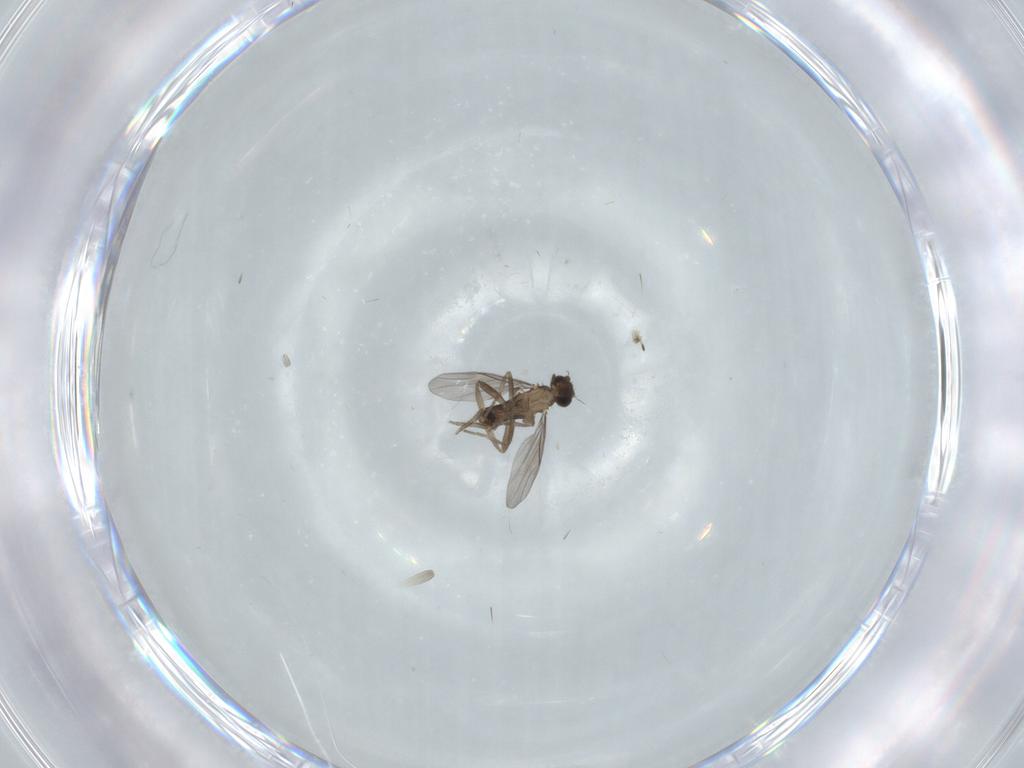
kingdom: Animalia
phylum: Arthropoda
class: Insecta
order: Diptera
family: Phoridae
